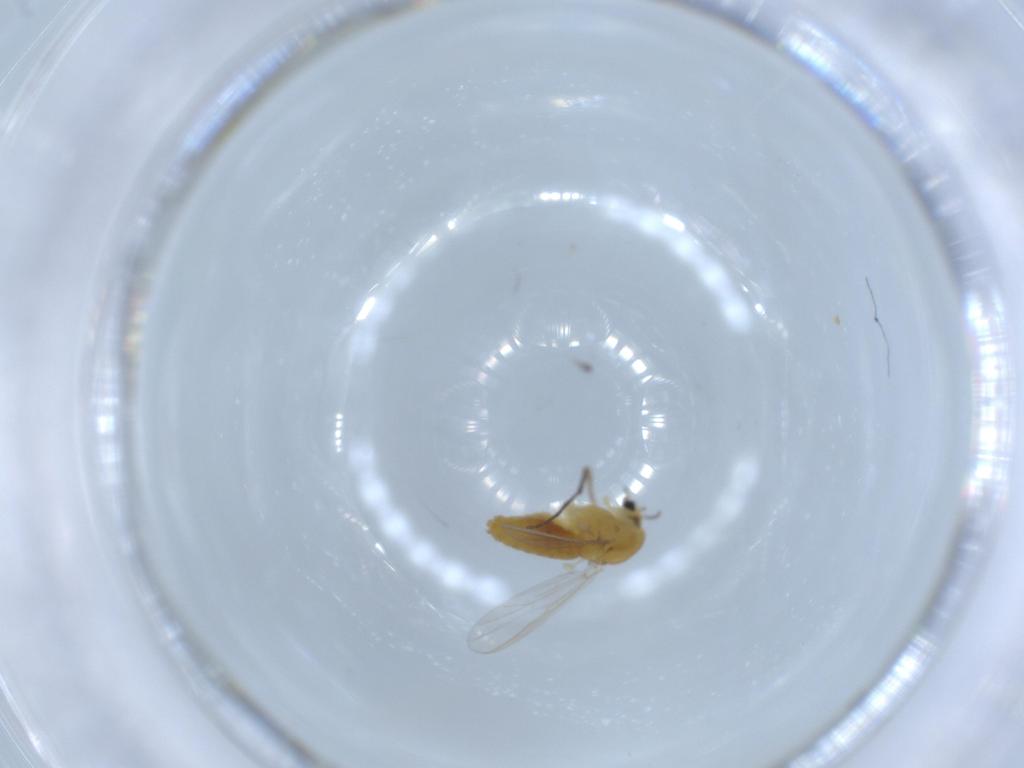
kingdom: Animalia
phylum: Arthropoda
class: Insecta
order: Diptera
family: Chironomidae
